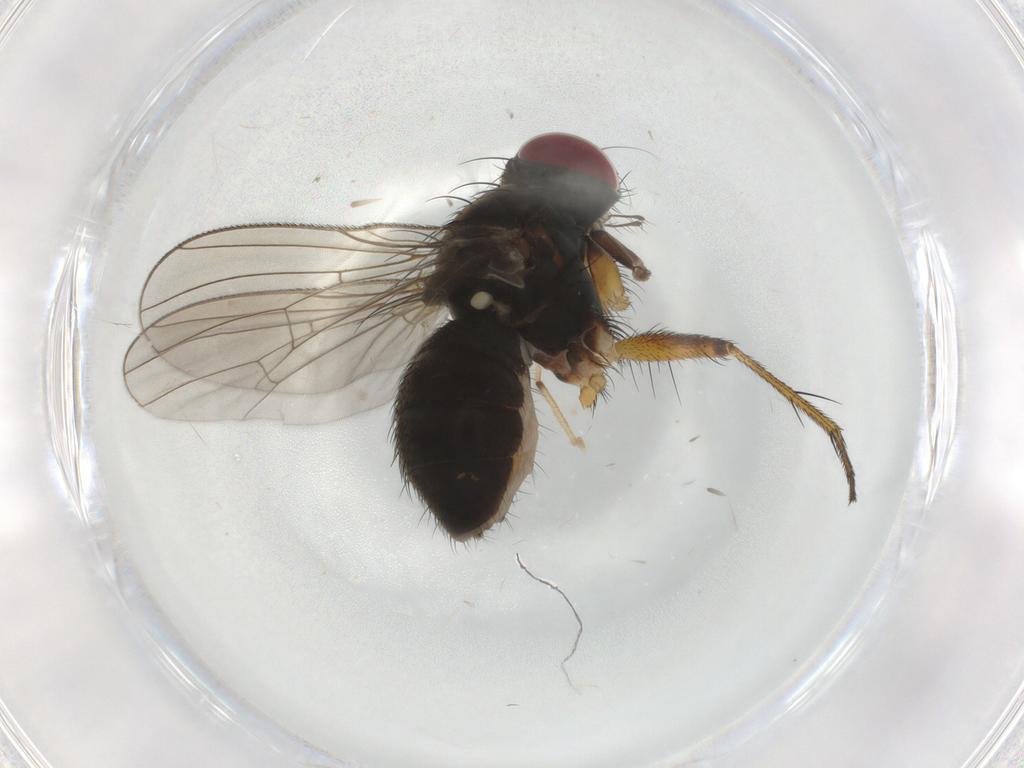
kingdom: Animalia
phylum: Arthropoda
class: Insecta
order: Diptera
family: Muscidae
